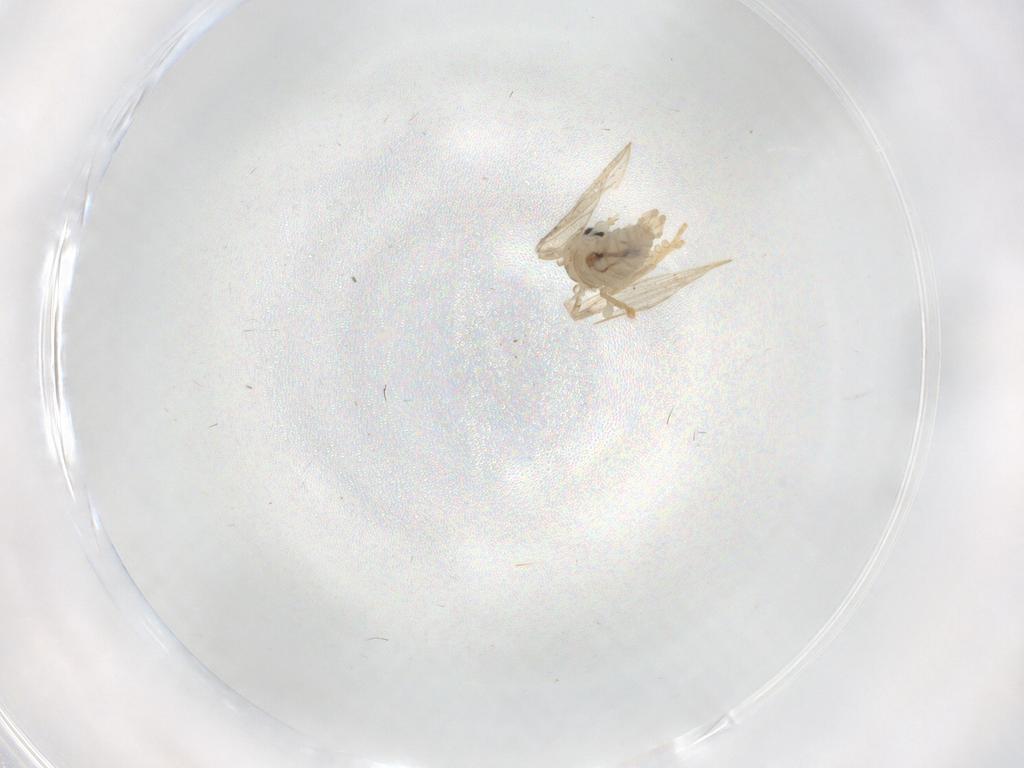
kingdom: Animalia
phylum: Arthropoda
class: Insecta
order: Diptera
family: Psychodidae
